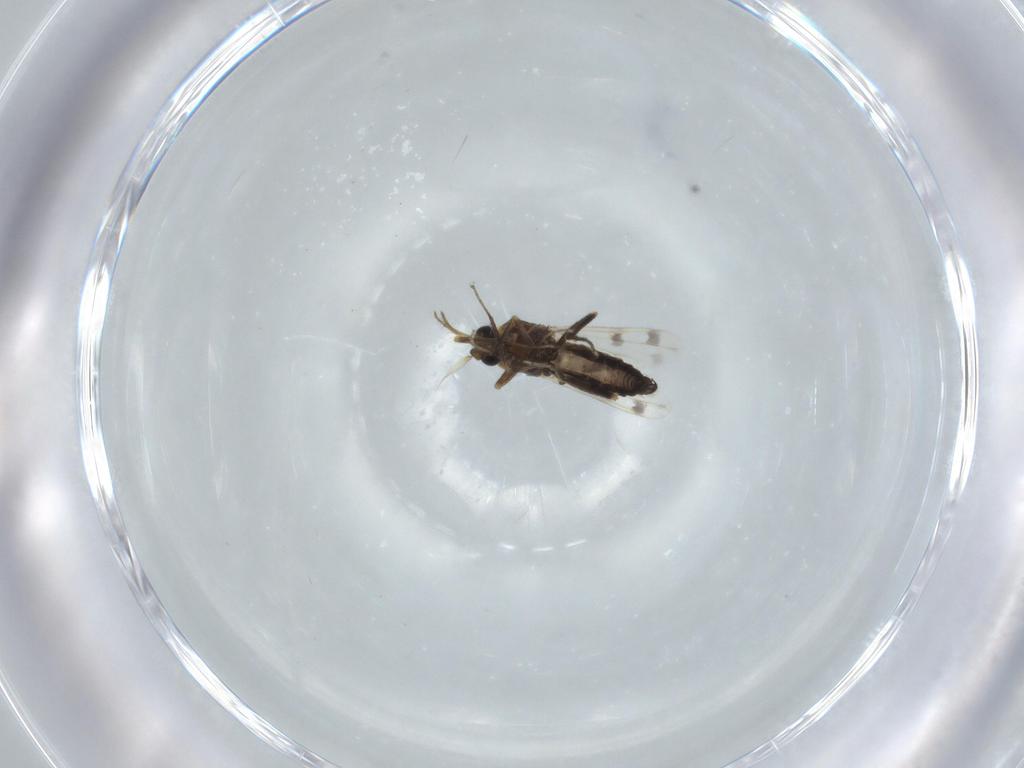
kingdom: Animalia
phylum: Arthropoda
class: Insecta
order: Diptera
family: Ceratopogonidae
